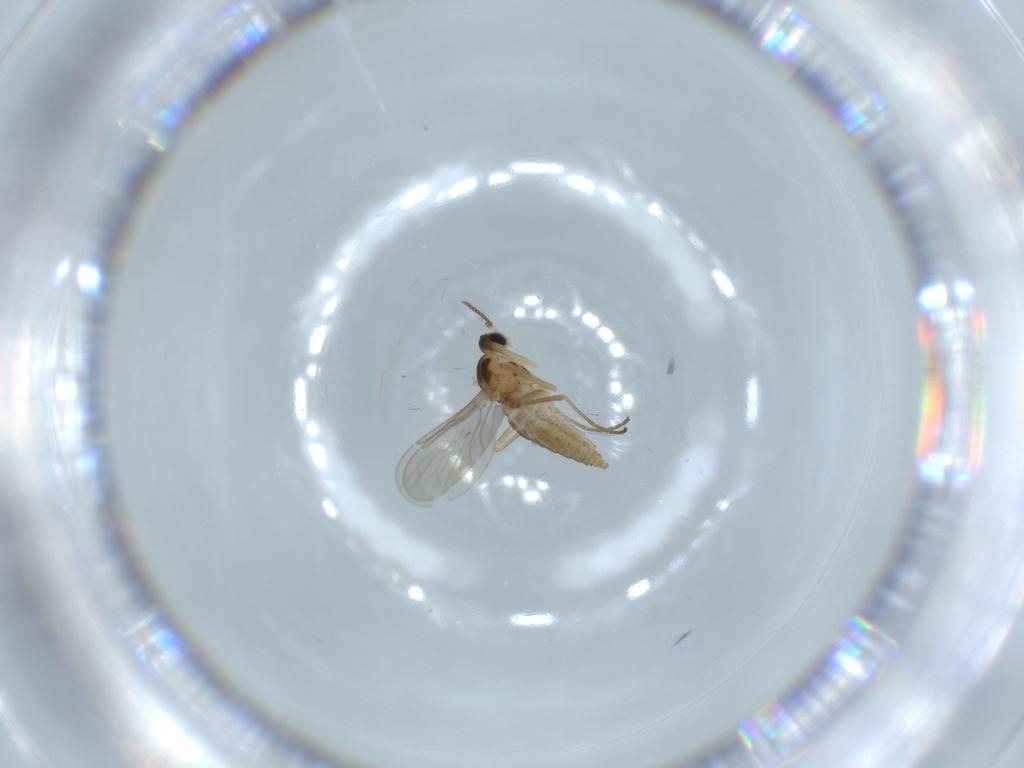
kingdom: Animalia
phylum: Arthropoda
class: Insecta
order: Diptera
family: Cecidomyiidae
